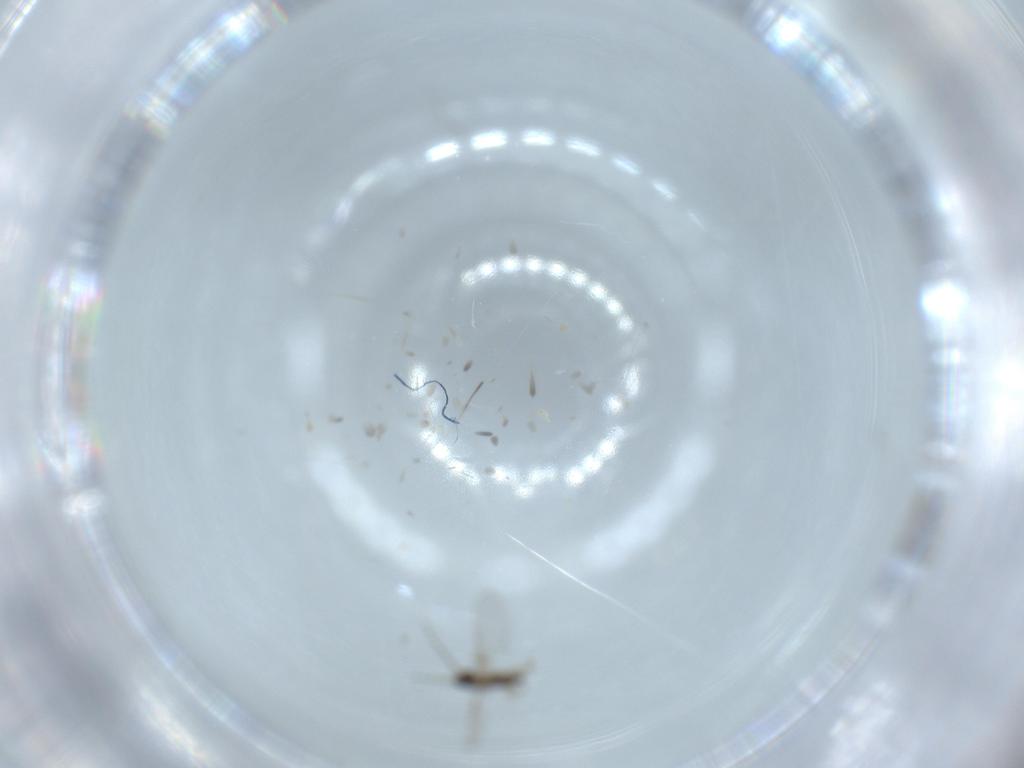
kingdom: Animalia
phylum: Arthropoda
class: Insecta
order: Diptera
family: Cecidomyiidae
